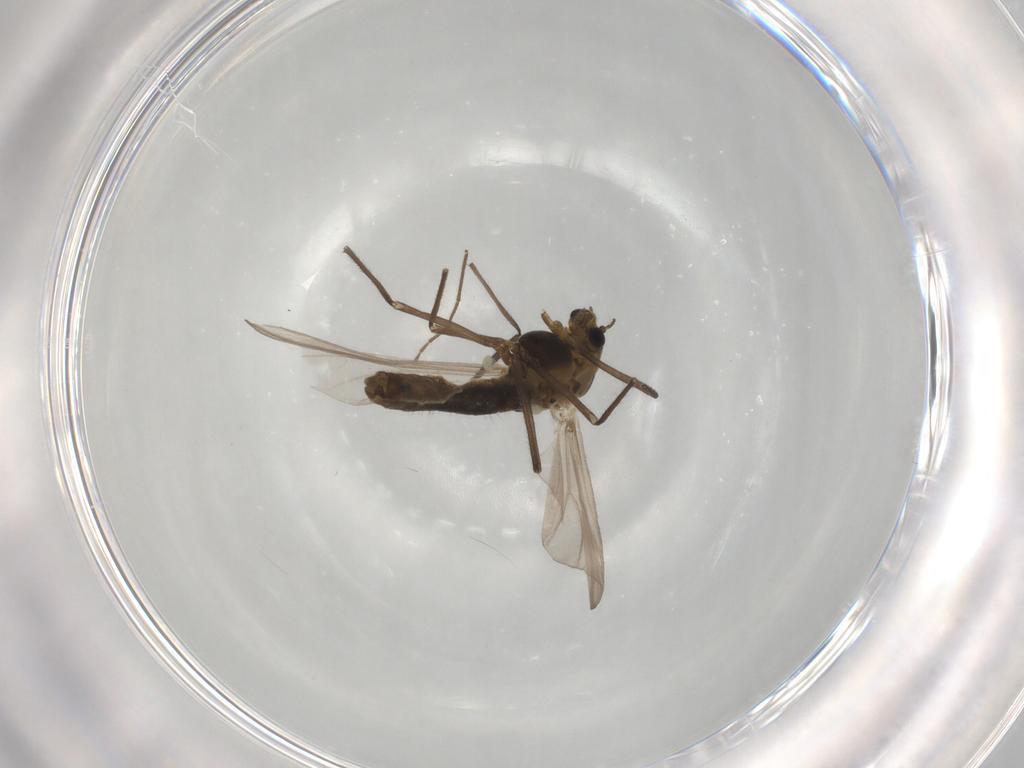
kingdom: Animalia
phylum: Arthropoda
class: Insecta
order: Diptera
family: Chironomidae
